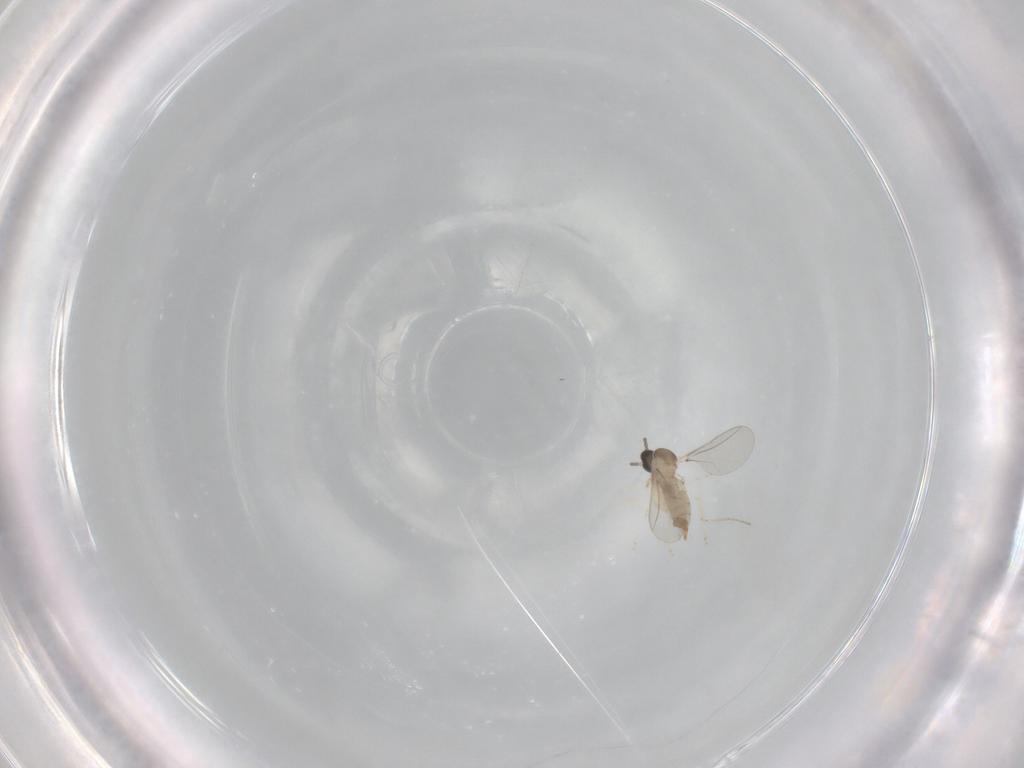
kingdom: Animalia
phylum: Arthropoda
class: Insecta
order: Diptera
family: Cecidomyiidae
